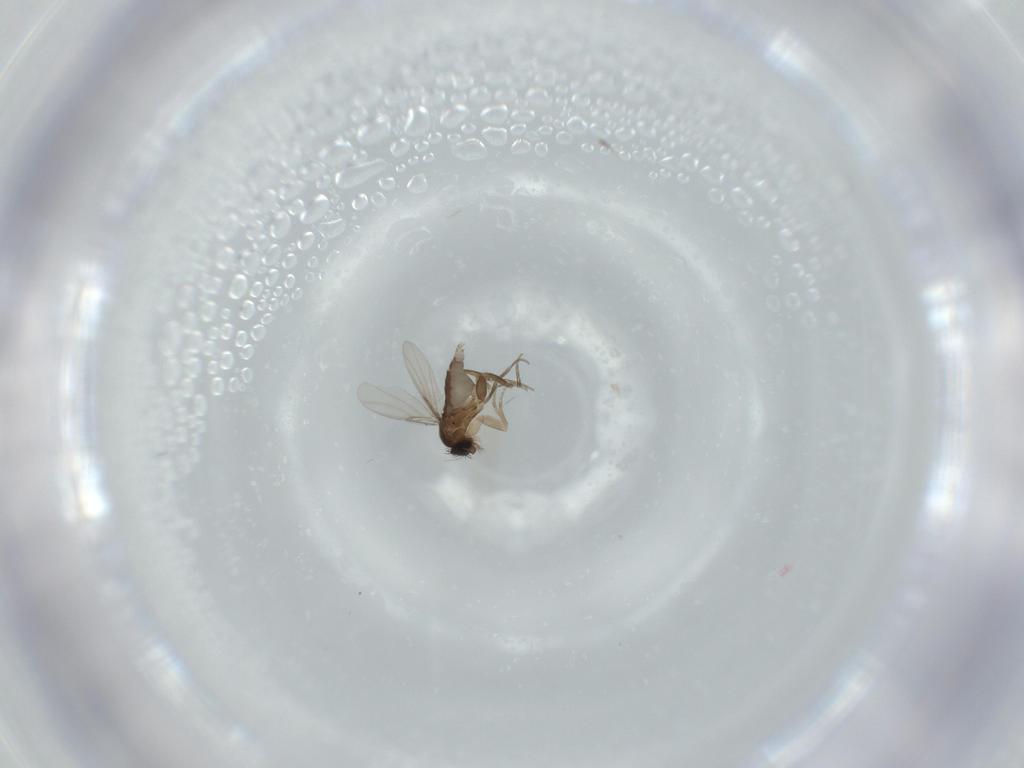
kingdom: Animalia
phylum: Arthropoda
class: Insecta
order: Diptera
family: Phoridae
